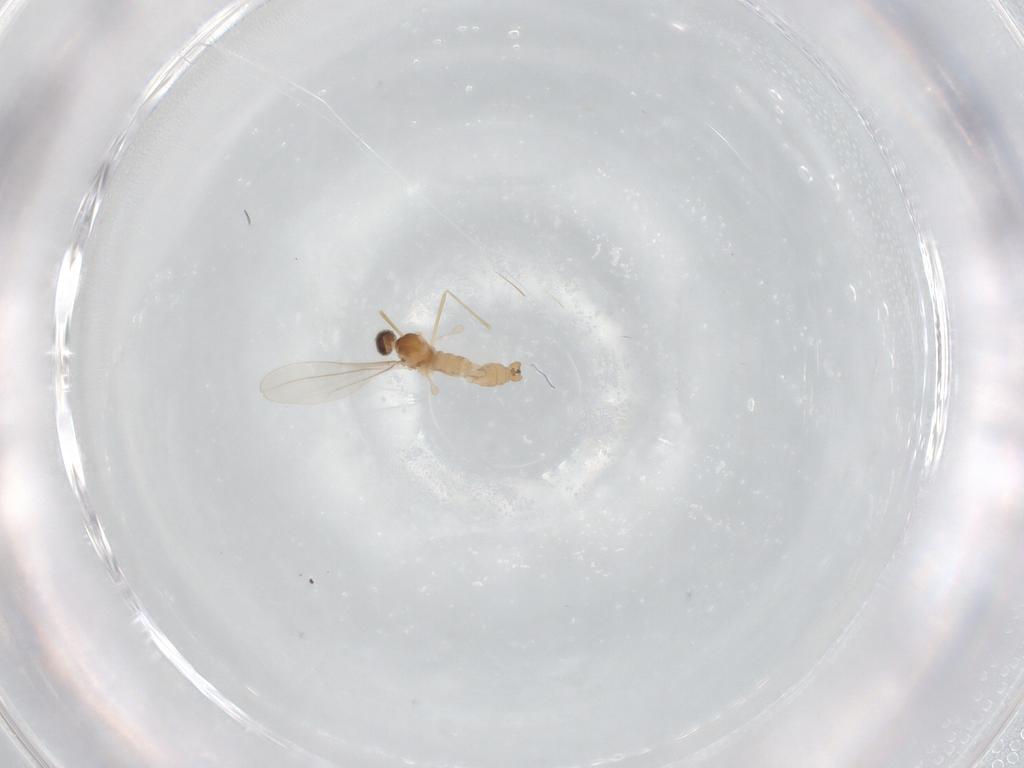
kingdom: Animalia
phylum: Arthropoda
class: Insecta
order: Diptera
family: Cecidomyiidae
